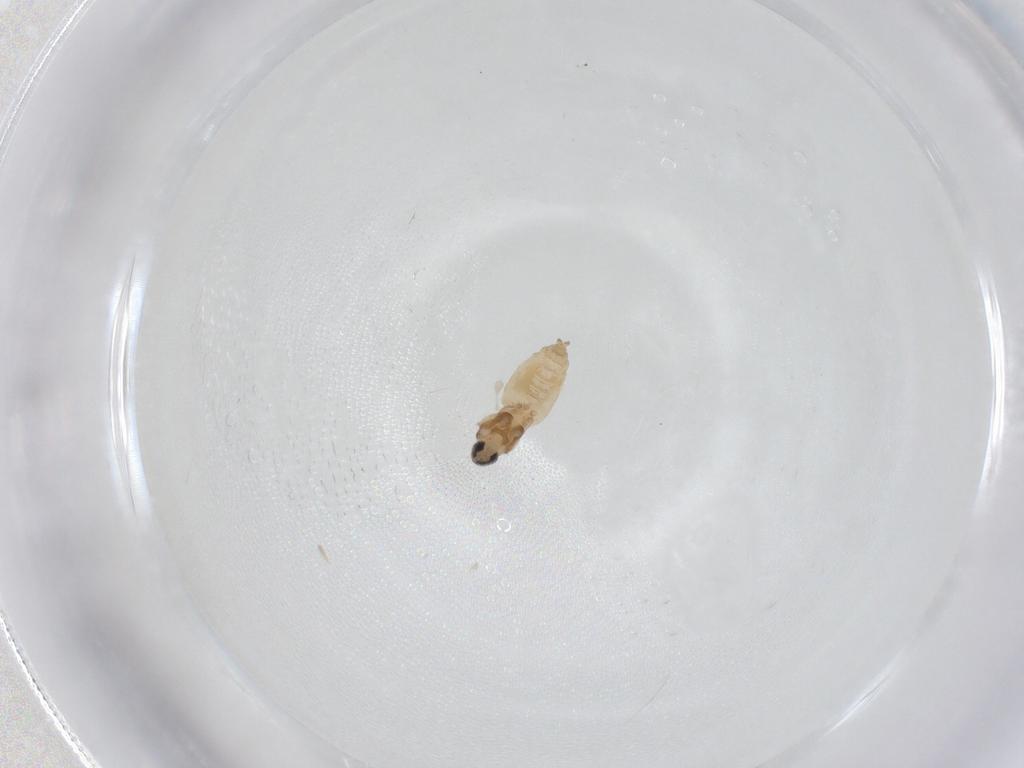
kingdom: Animalia
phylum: Arthropoda
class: Insecta
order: Diptera
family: Cecidomyiidae
